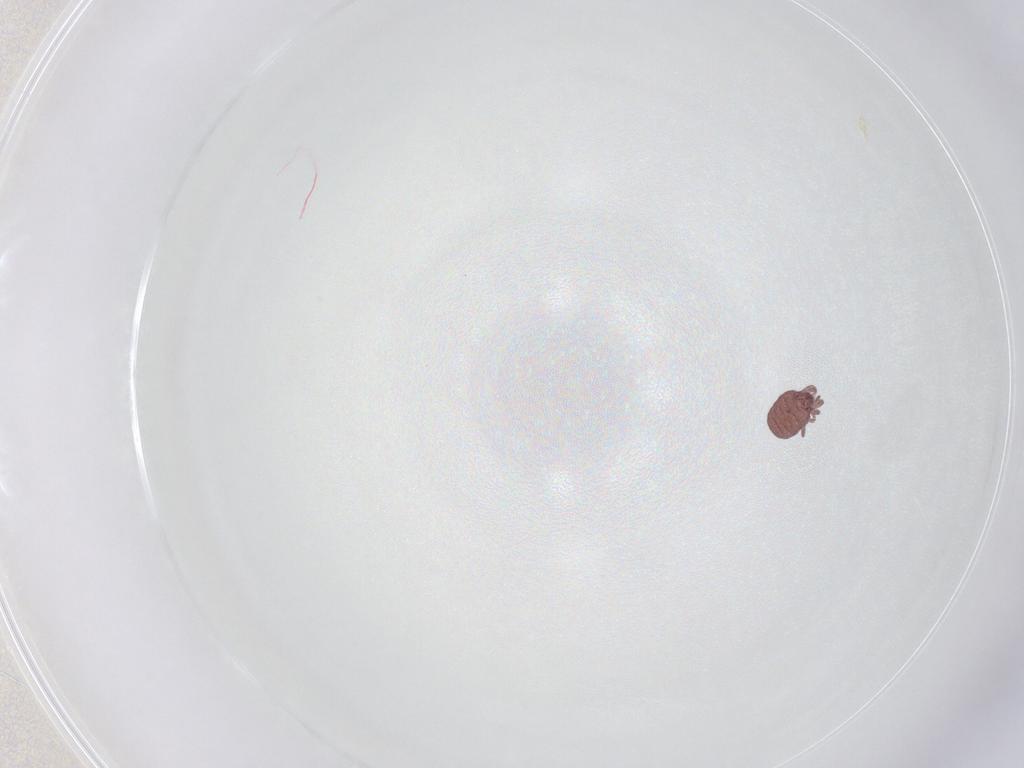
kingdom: Animalia
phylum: Arthropoda
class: Arachnida
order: Sarcoptiformes
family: Alycidae
